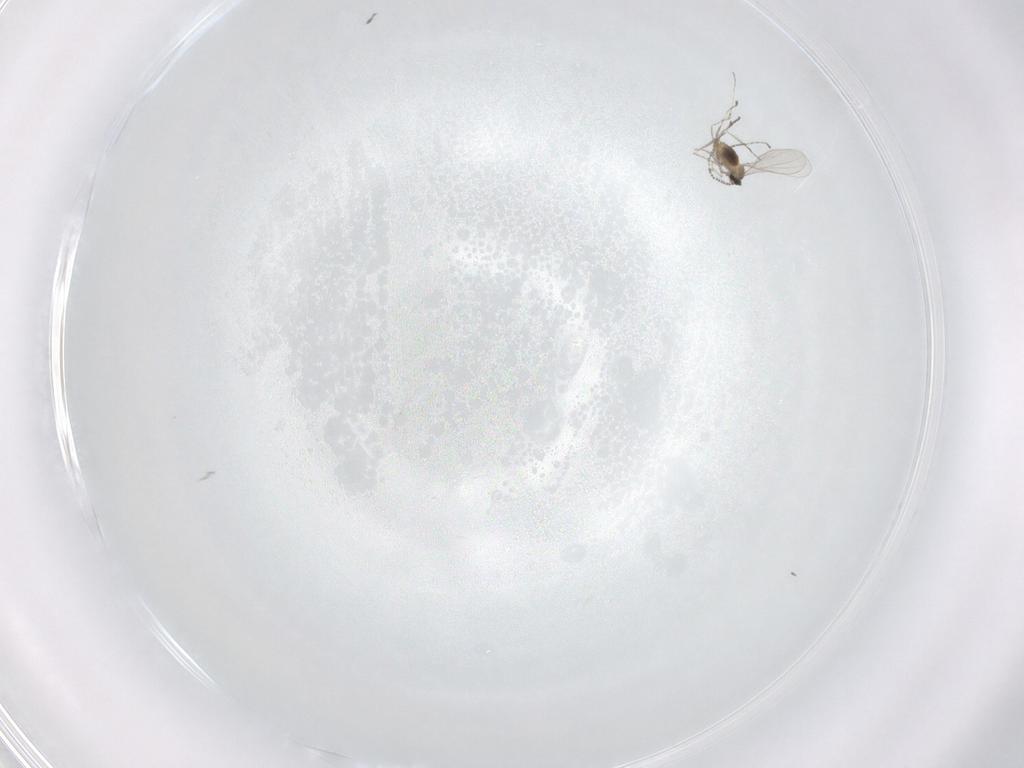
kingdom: Animalia
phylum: Arthropoda
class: Insecta
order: Diptera
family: Cecidomyiidae
